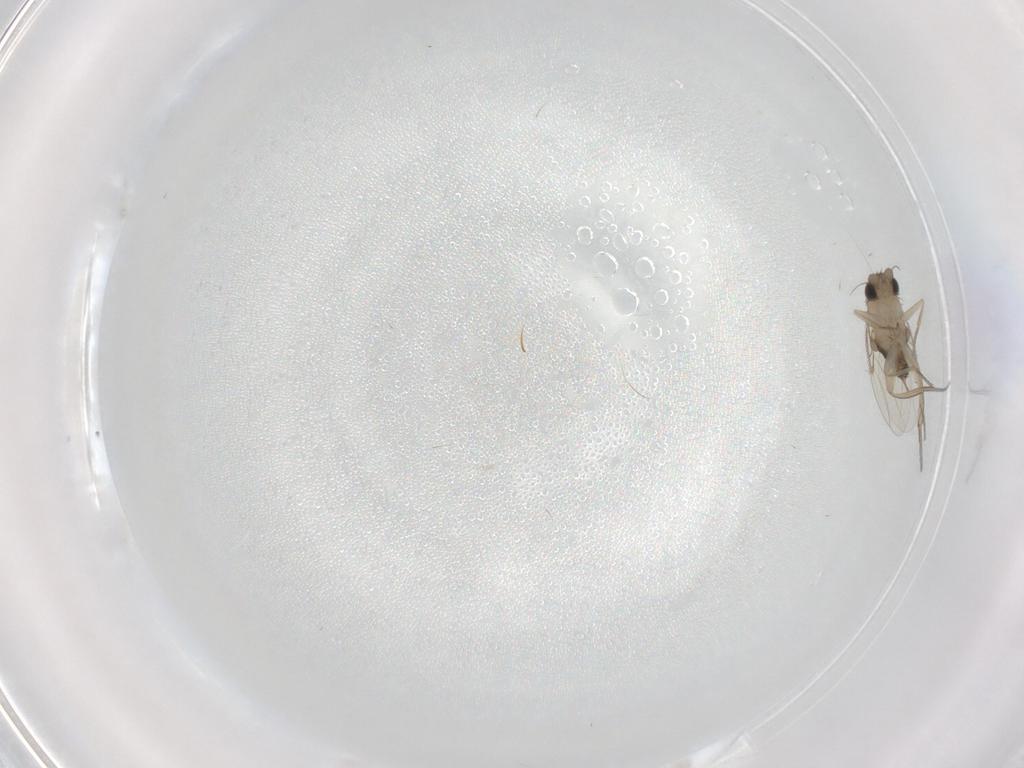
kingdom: Animalia
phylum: Arthropoda
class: Insecta
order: Diptera
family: Phoridae
